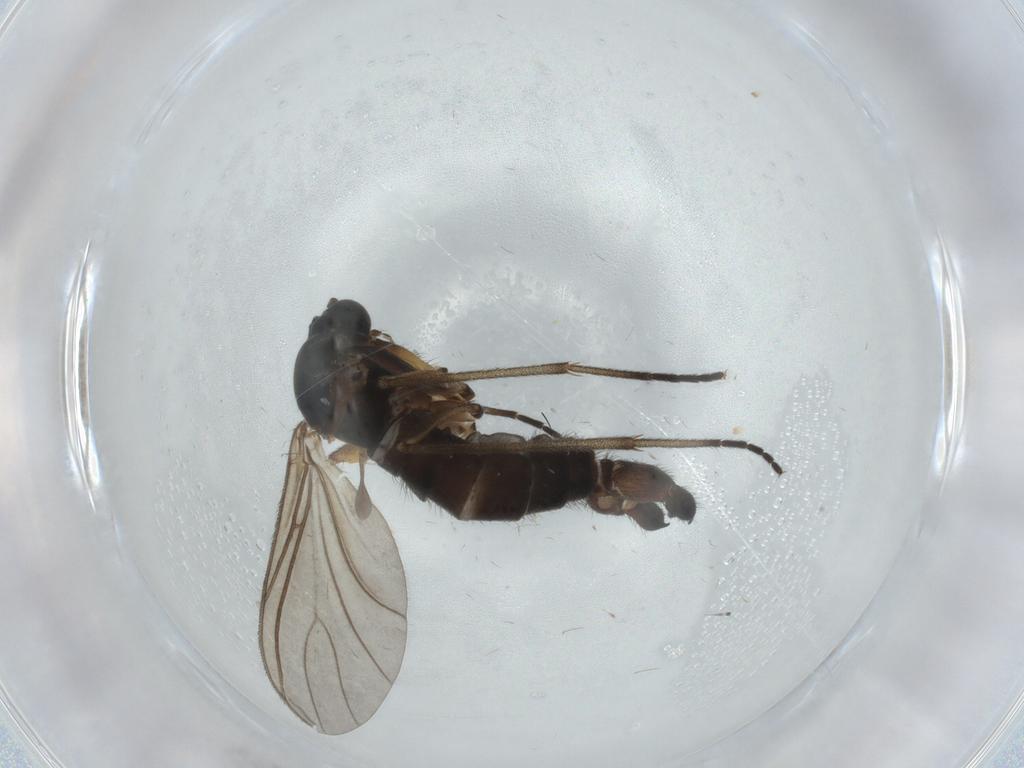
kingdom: Animalia
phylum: Arthropoda
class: Insecta
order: Diptera
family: Sciaridae
